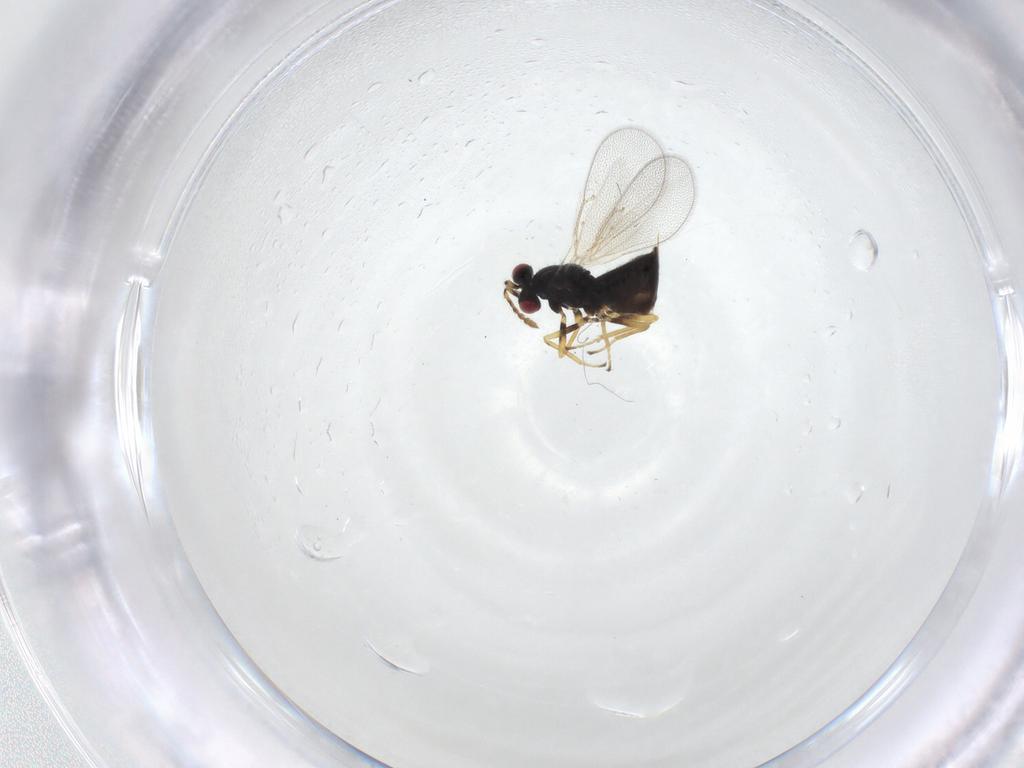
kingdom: Animalia
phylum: Arthropoda
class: Insecta
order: Hymenoptera
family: Eulophidae
